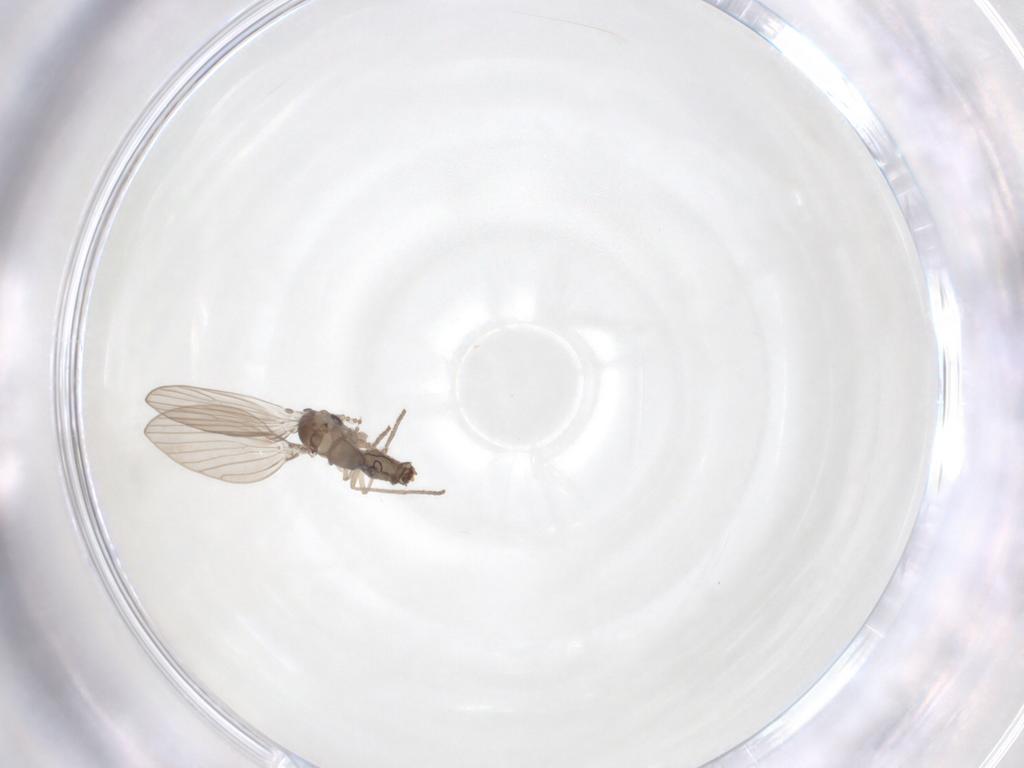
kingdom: Animalia
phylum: Arthropoda
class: Insecta
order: Diptera
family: Psychodidae
